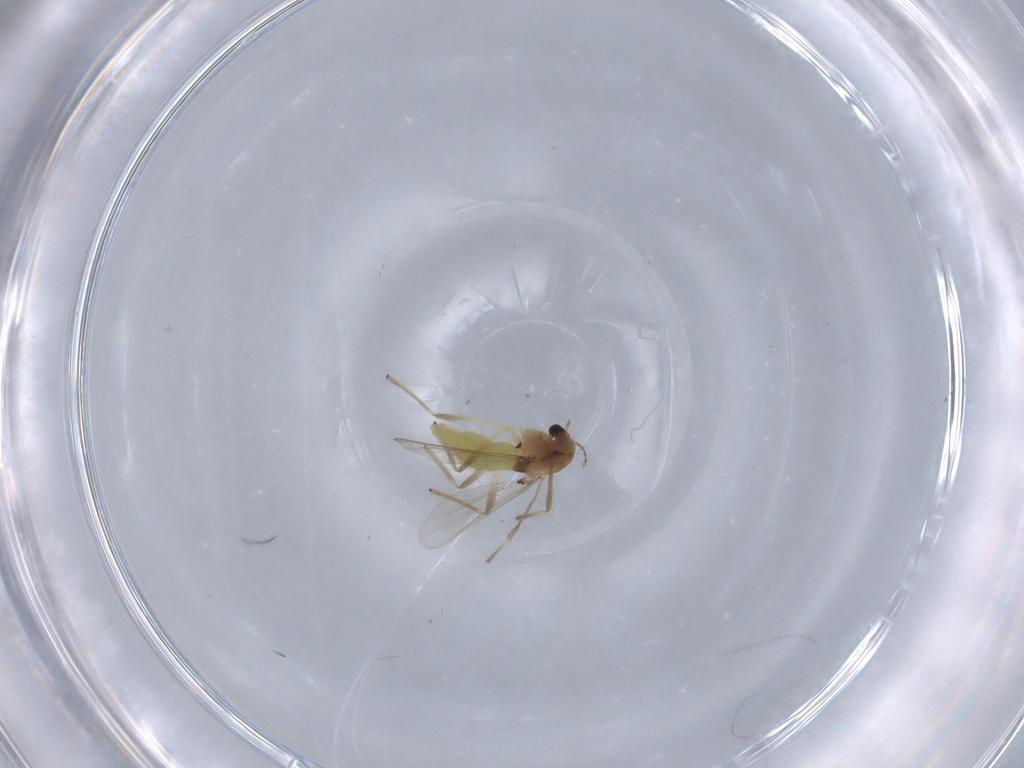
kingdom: Animalia
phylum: Arthropoda
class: Insecta
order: Diptera
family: Chironomidae
